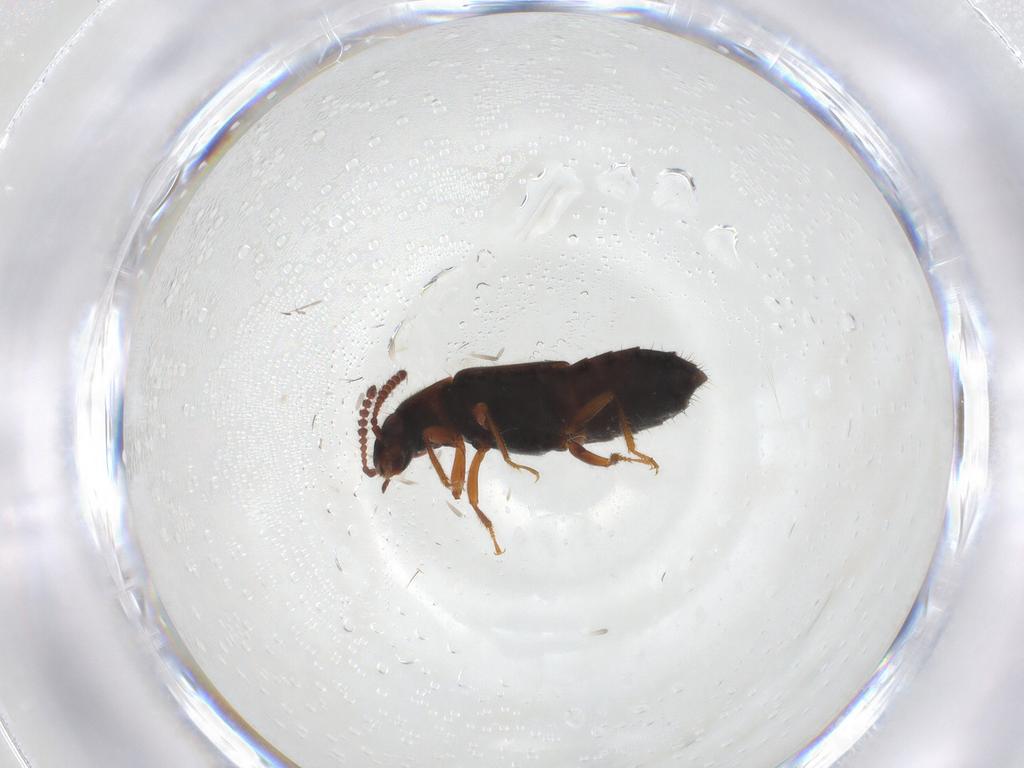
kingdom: Animalia
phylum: Arthropoda
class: Insecta
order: Coleoptera
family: Staphylinidae
